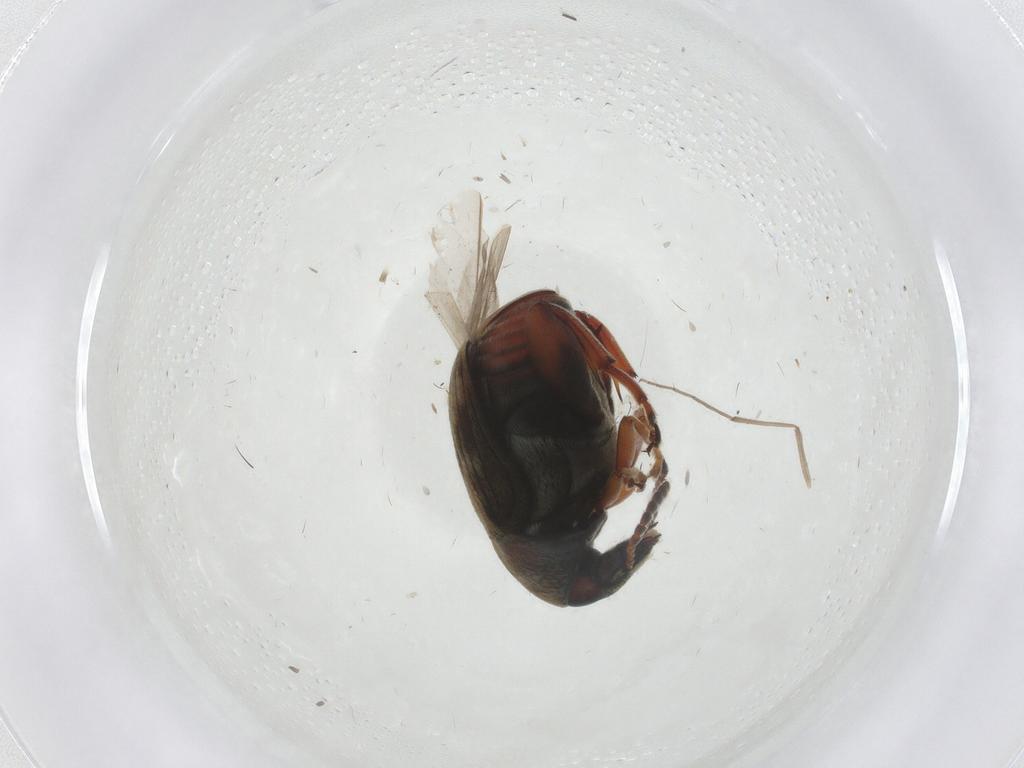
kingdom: Animalia
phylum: Arthropoda
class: Insecta
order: Coleoptera
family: Chrysomelidae
